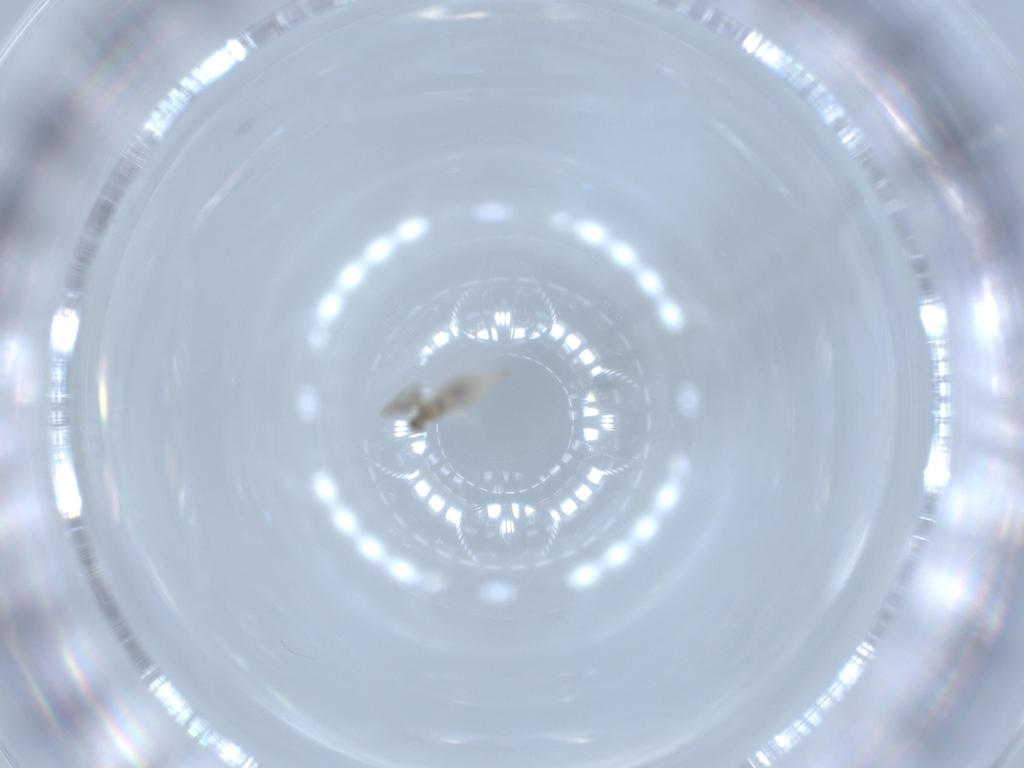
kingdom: Animalia
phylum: Arthropoda
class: Insecta
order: Diptera
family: Cecidomyiidae
